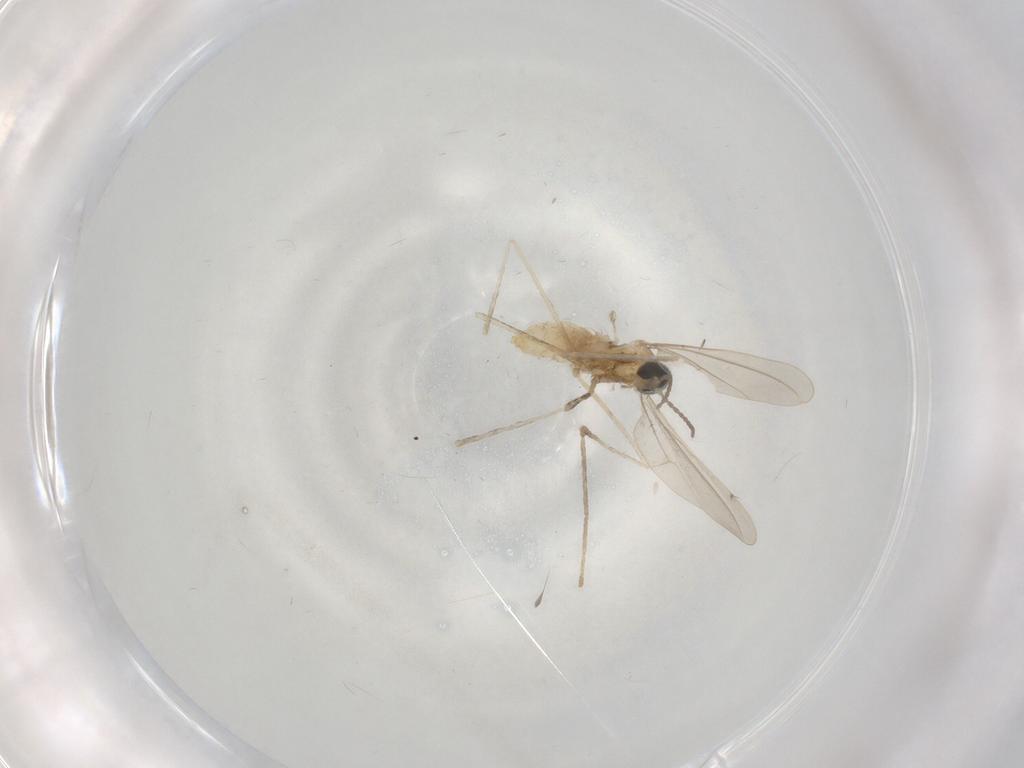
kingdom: Animalia
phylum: Arthropoda
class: Insecta
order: Diptera
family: Cecidomyiidae
